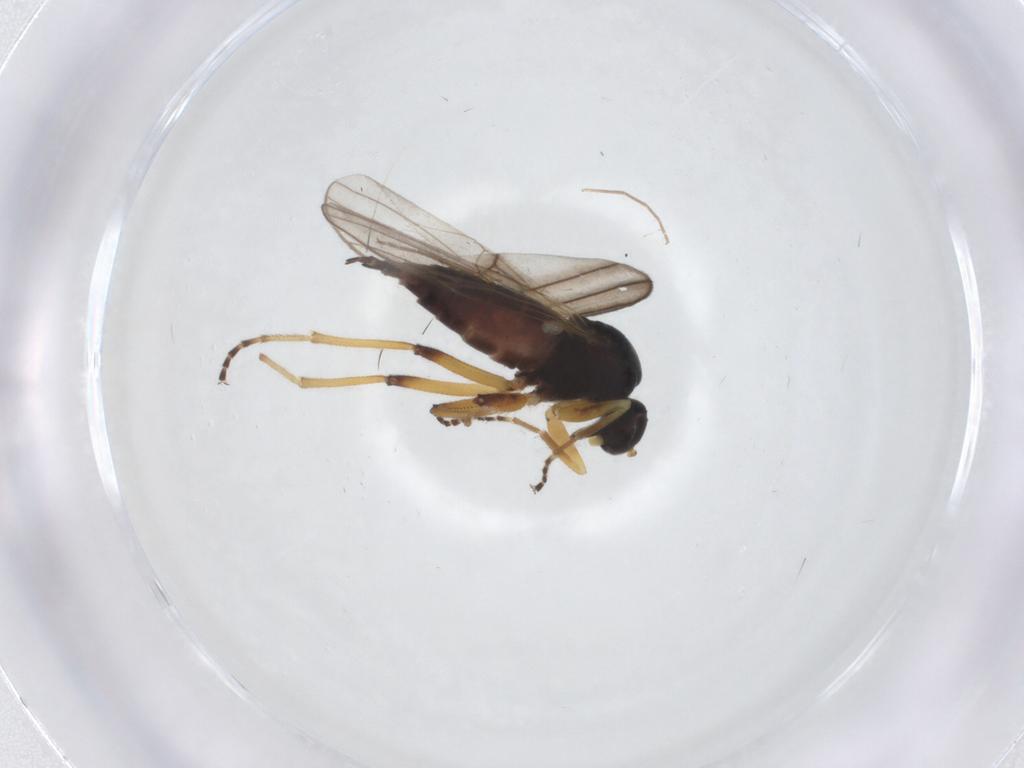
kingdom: Animalia
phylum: Arthropoda
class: Insecta
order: Diptera
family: Hybotidae
